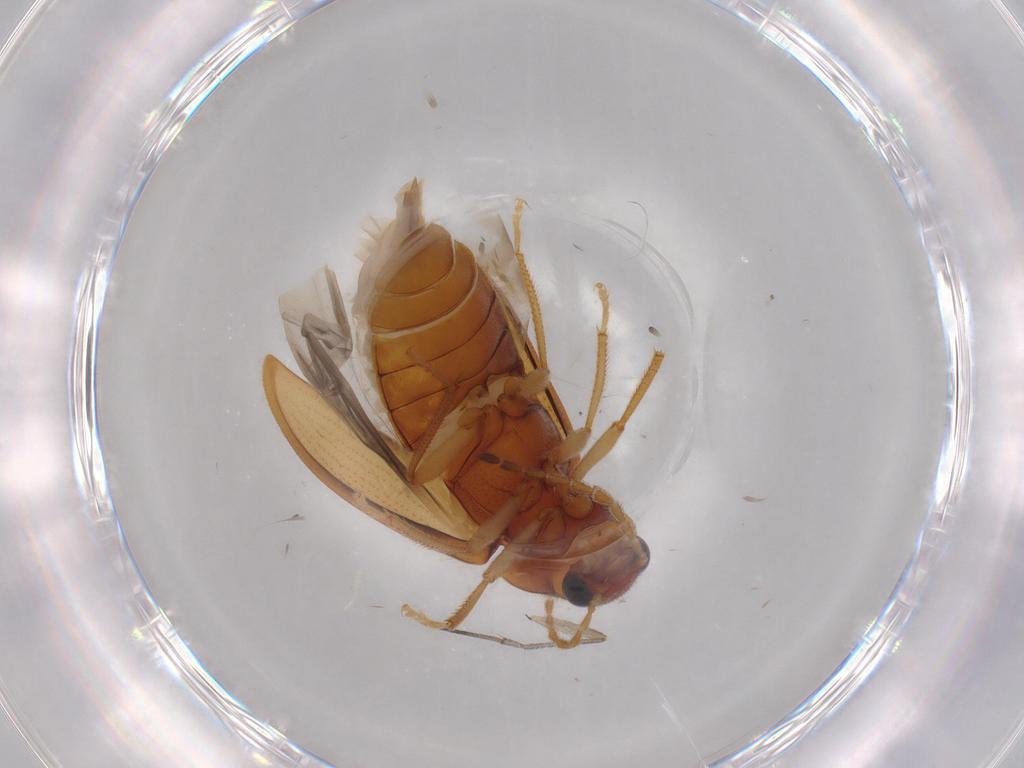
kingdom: Animalia
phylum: Arthropoda
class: Insecta
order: Coleoptera
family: Ptilodactylidae
